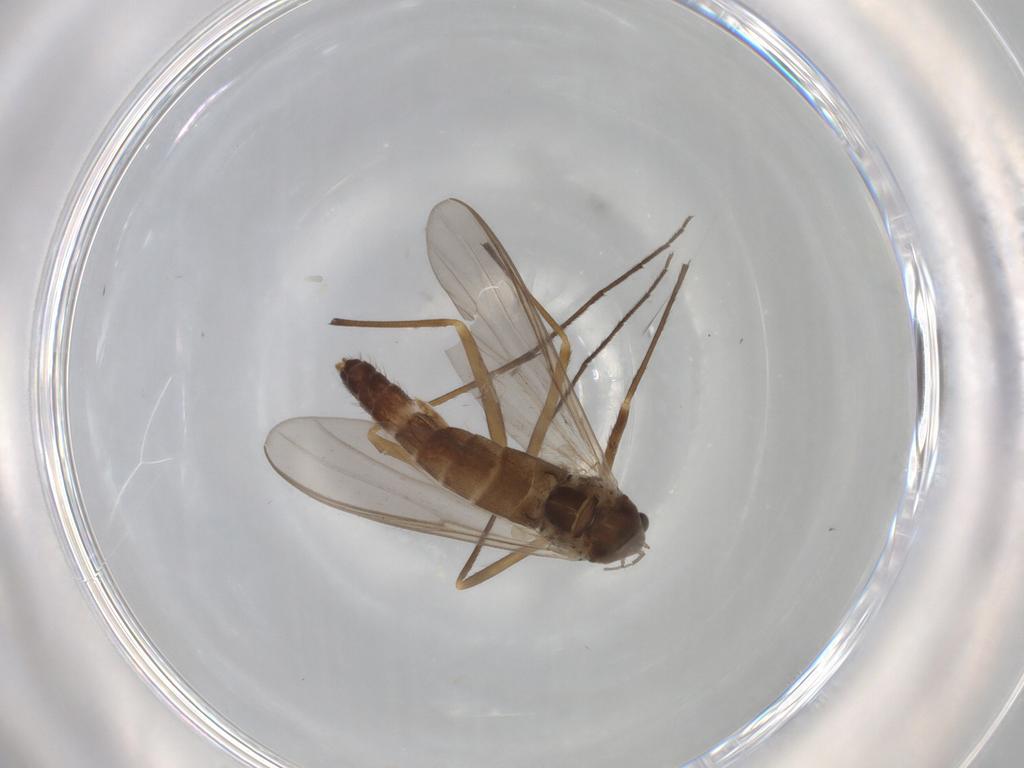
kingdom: Animalia
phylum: Arthropoda
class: Insecta
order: Diptera
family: Chironomidae
